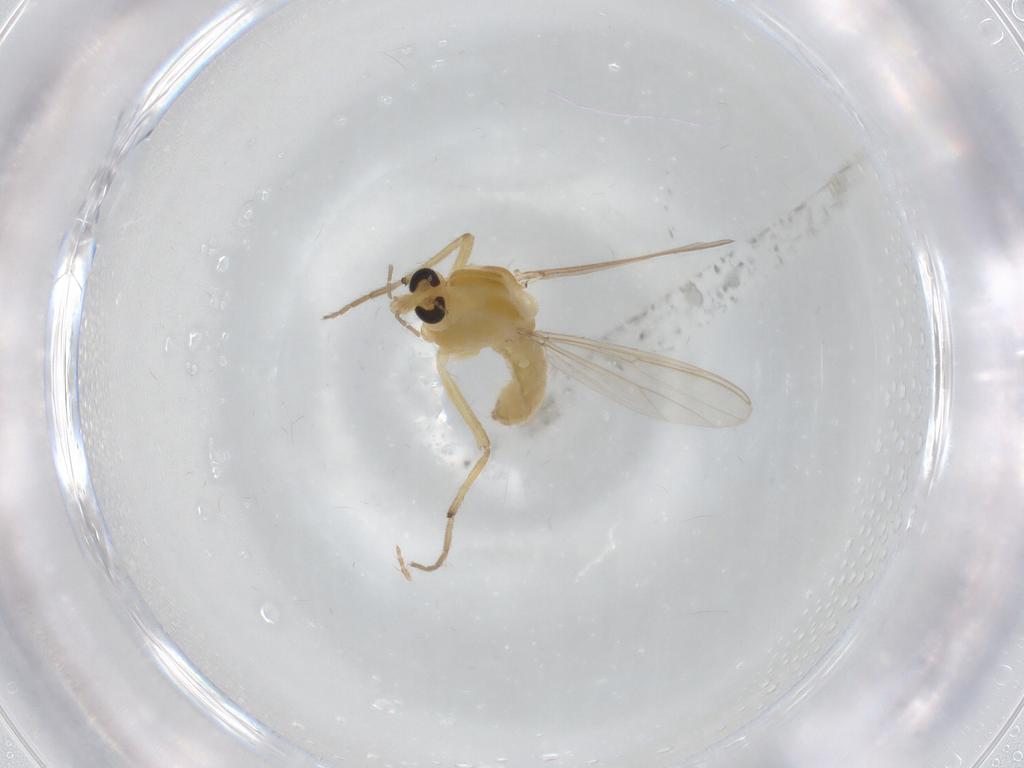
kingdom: Animalia
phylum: Arthropoda
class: Insecta
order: Diptera
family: Chironomidae
